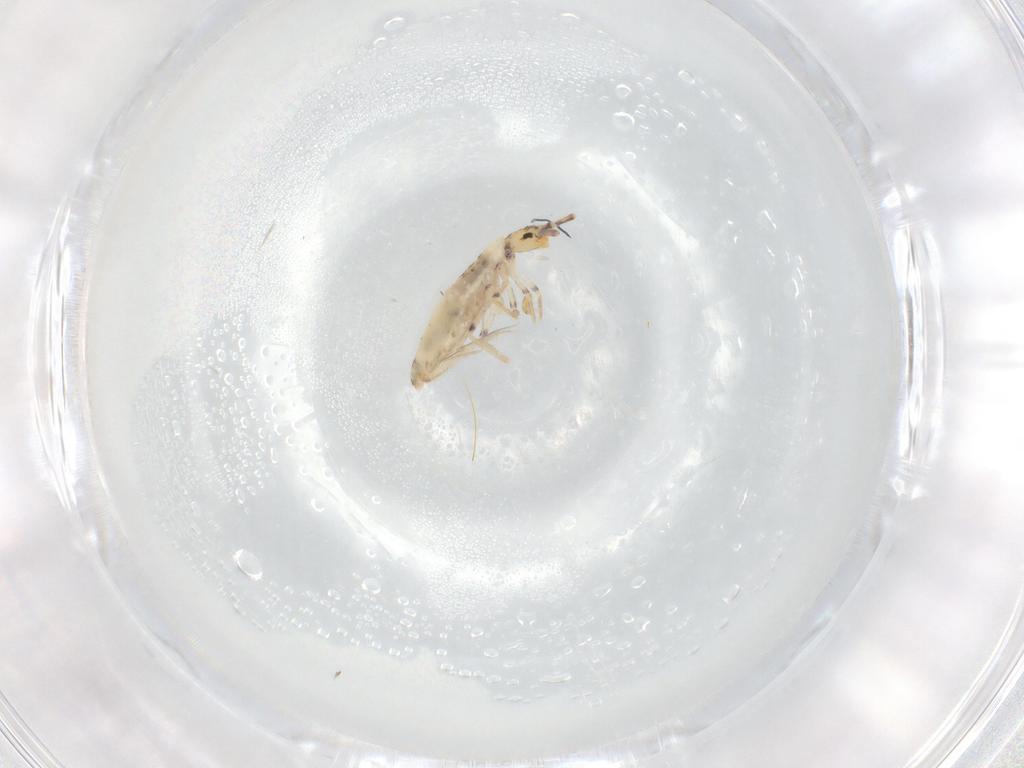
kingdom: Animalia
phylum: Arthropoda
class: Collembola
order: Entomobryomorpha
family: Entomobryidae
